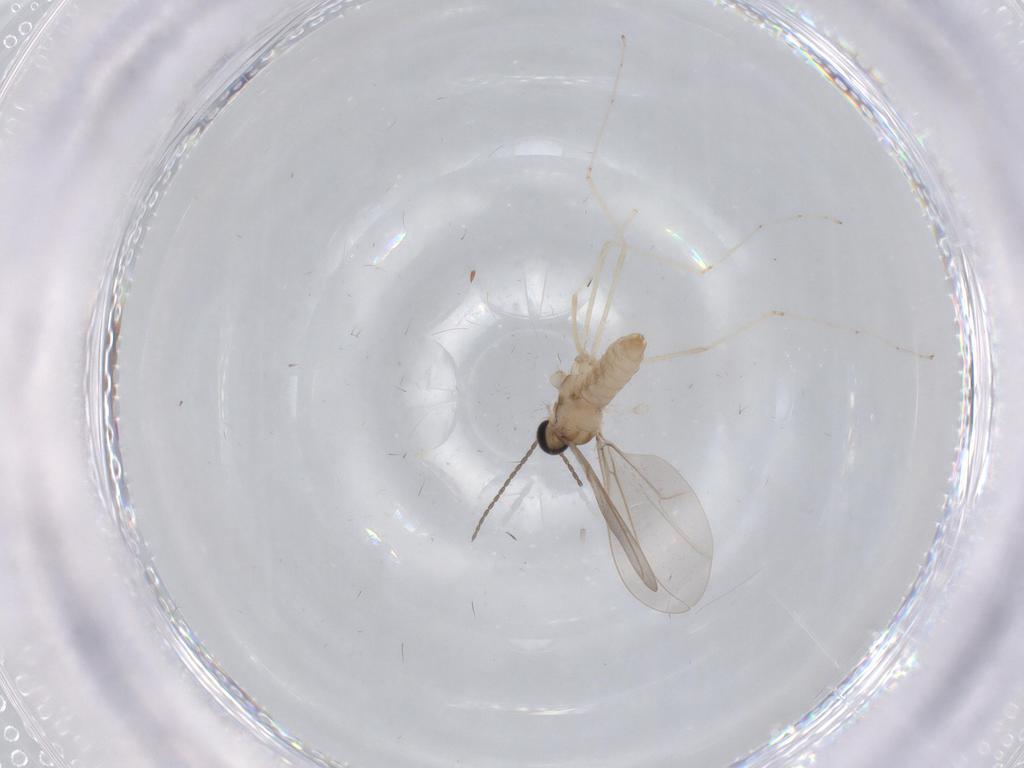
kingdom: Animalia
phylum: Arthropoda
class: Insecta
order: Diptera
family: Cecidomyiidae
